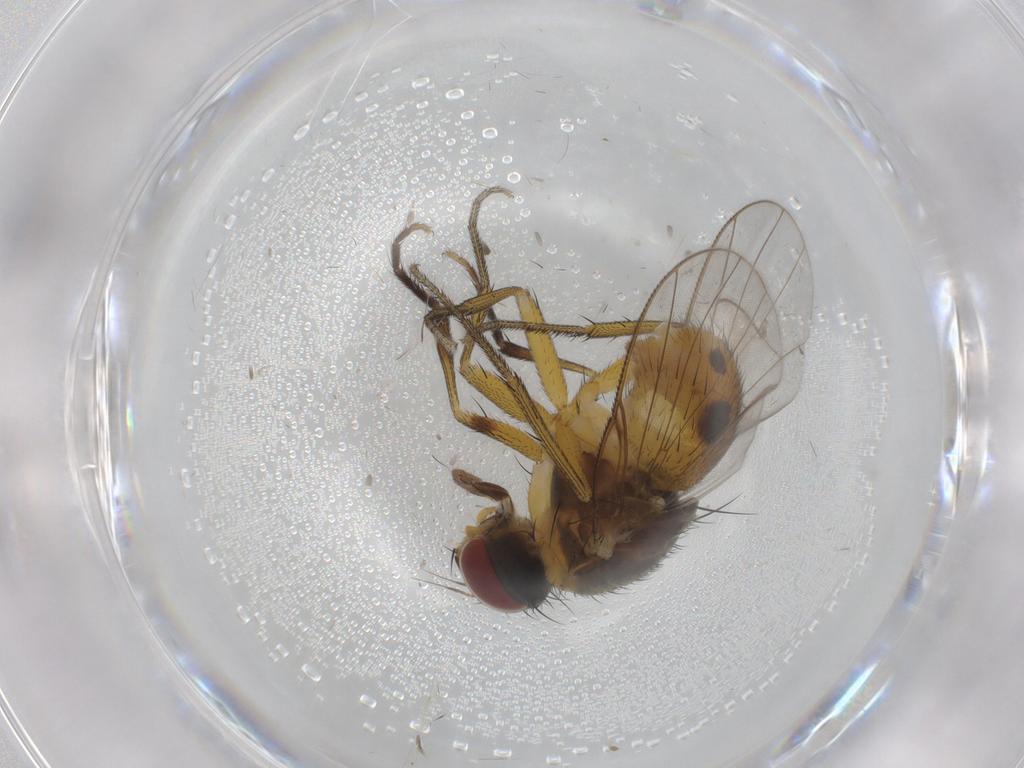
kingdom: Animalia
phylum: Arthropoda
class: Insecta
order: Diptera
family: Muscidae
